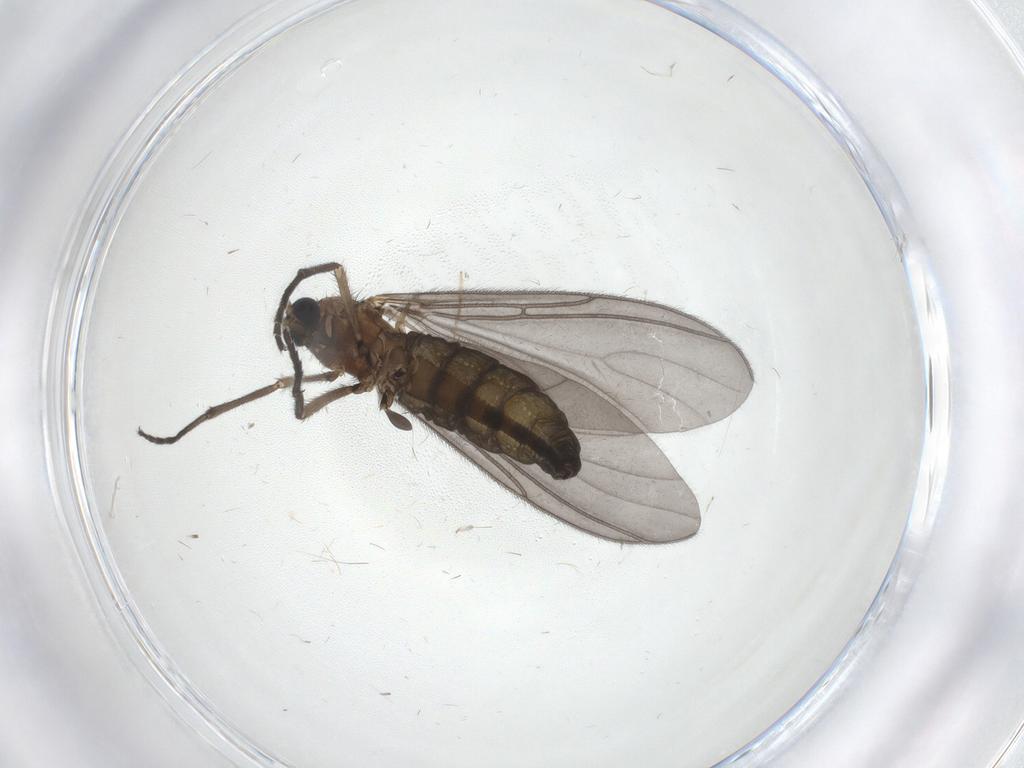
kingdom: Animalia
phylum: Arthropoda
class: Insecta
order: Diptera
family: Chironomidae
